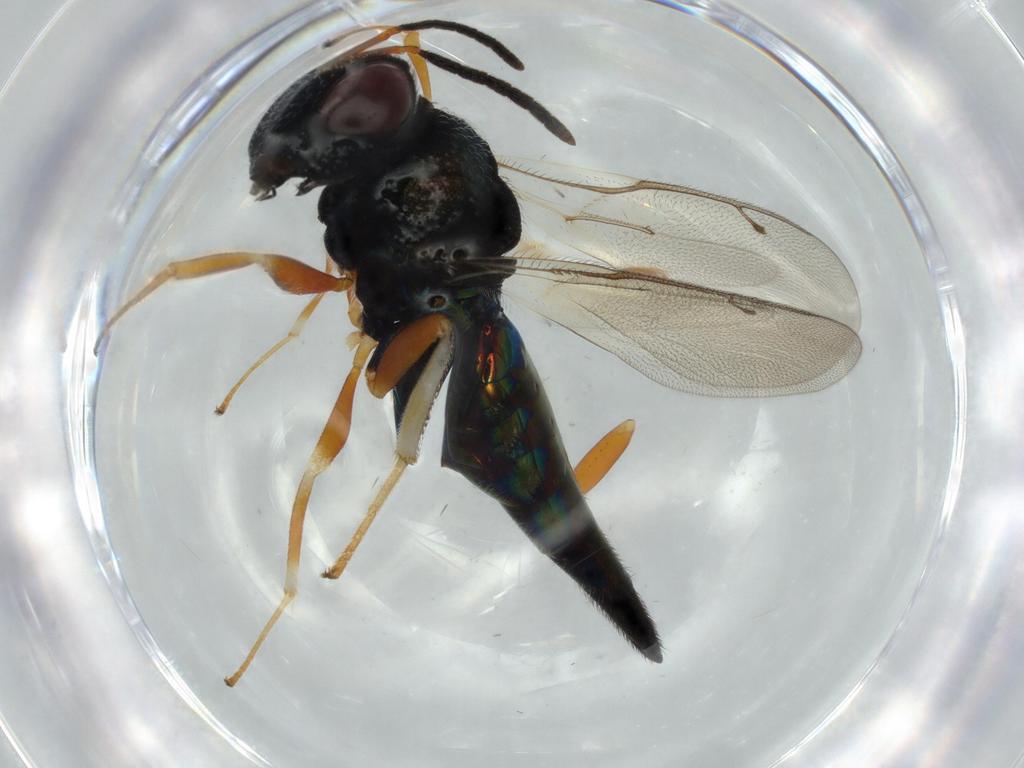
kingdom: Animalia
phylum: Arthropoda
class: Insecta
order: Hymenoptera
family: Pteromalidae
